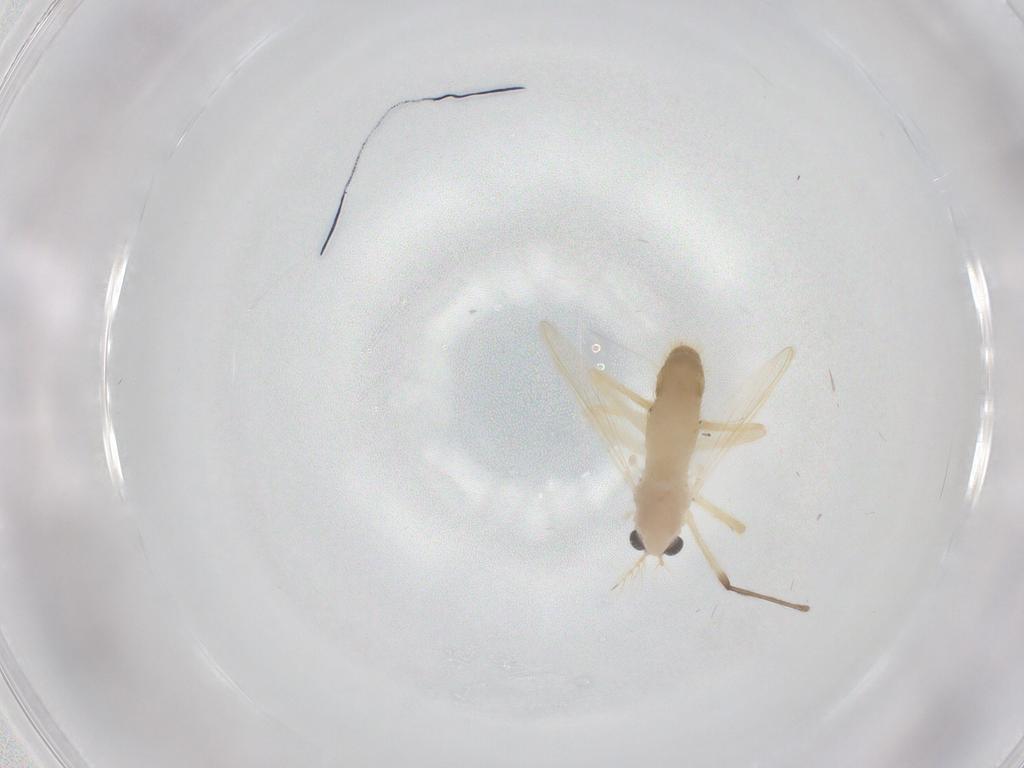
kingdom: Animalia
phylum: Arthropoda
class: Insecta
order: Diptera
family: Chironomidae
